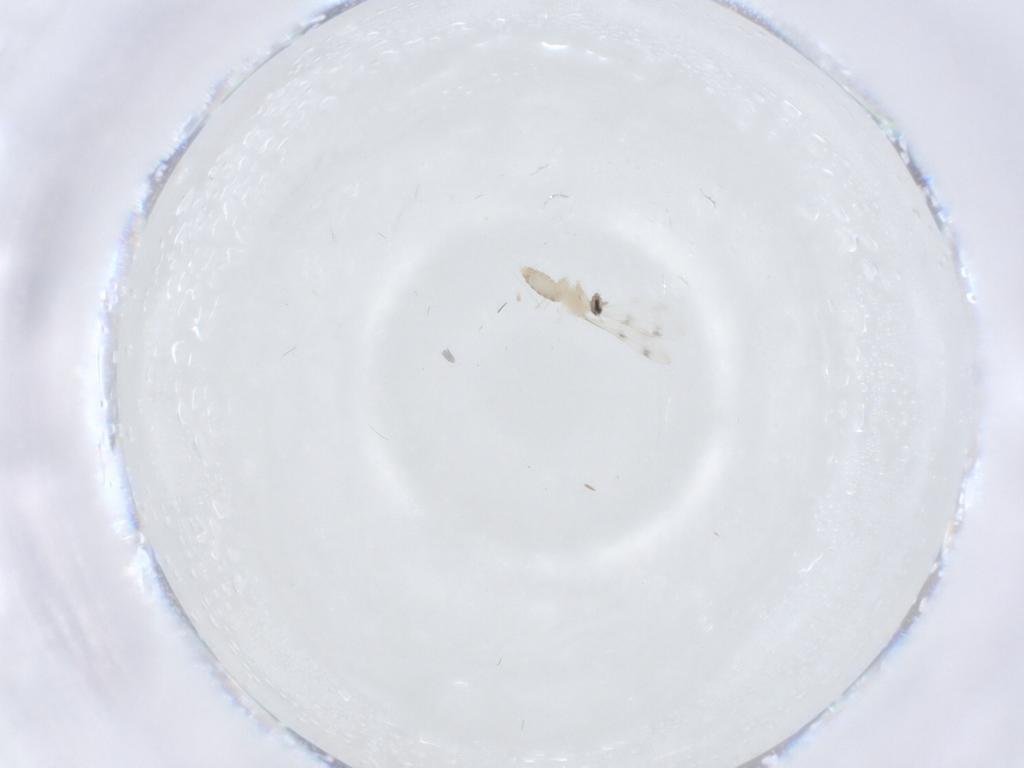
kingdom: Animalia
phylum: Arthropoda
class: Insecta
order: Diptera
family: Cecidomyiidae
